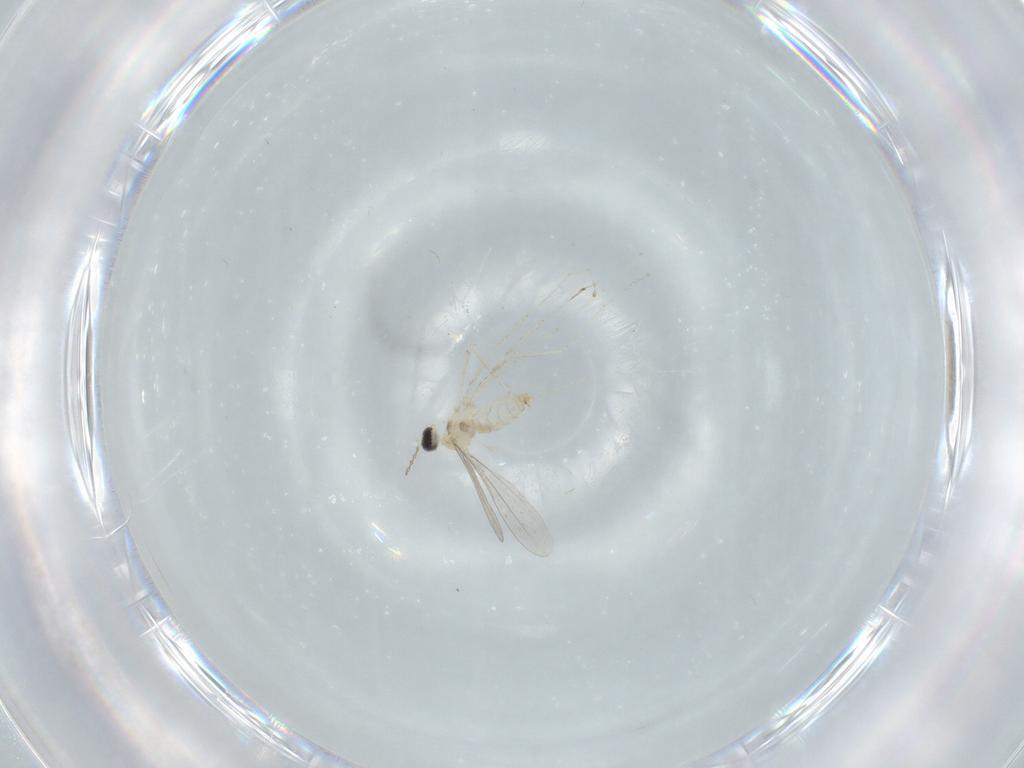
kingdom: Animalia
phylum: Arthropoda
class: Insecta
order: Diptera
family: Cecidomyiidae
